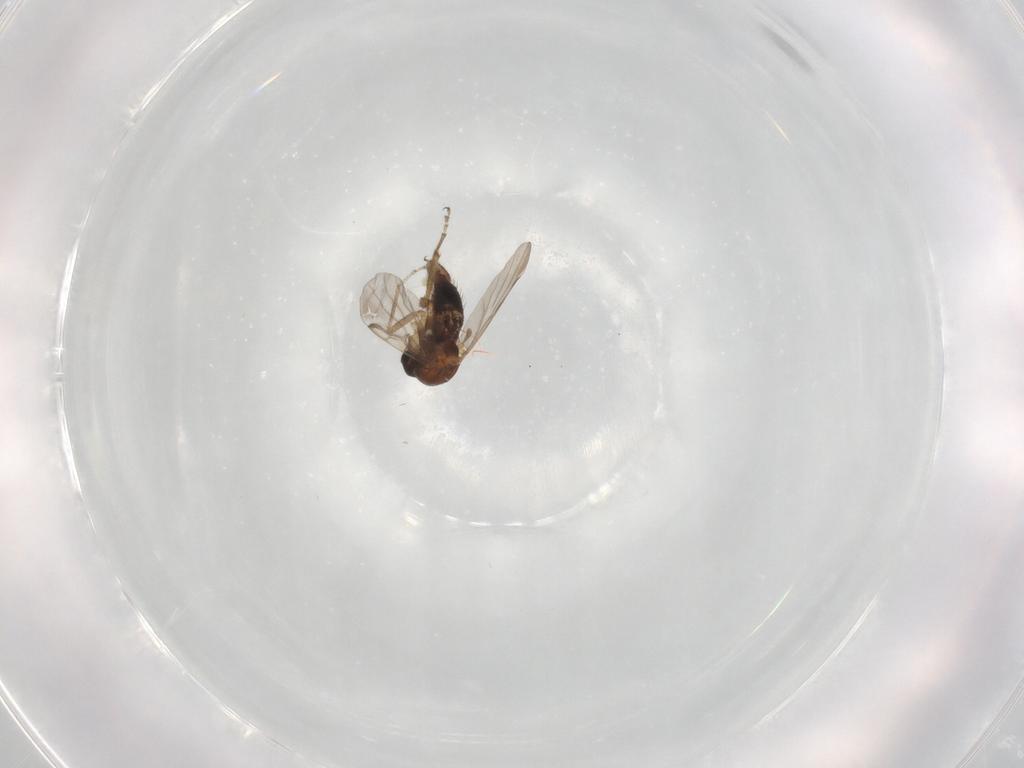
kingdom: Animalia
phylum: Arthropoda
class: Insecta
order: Diptera
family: Ceratopogonidae
